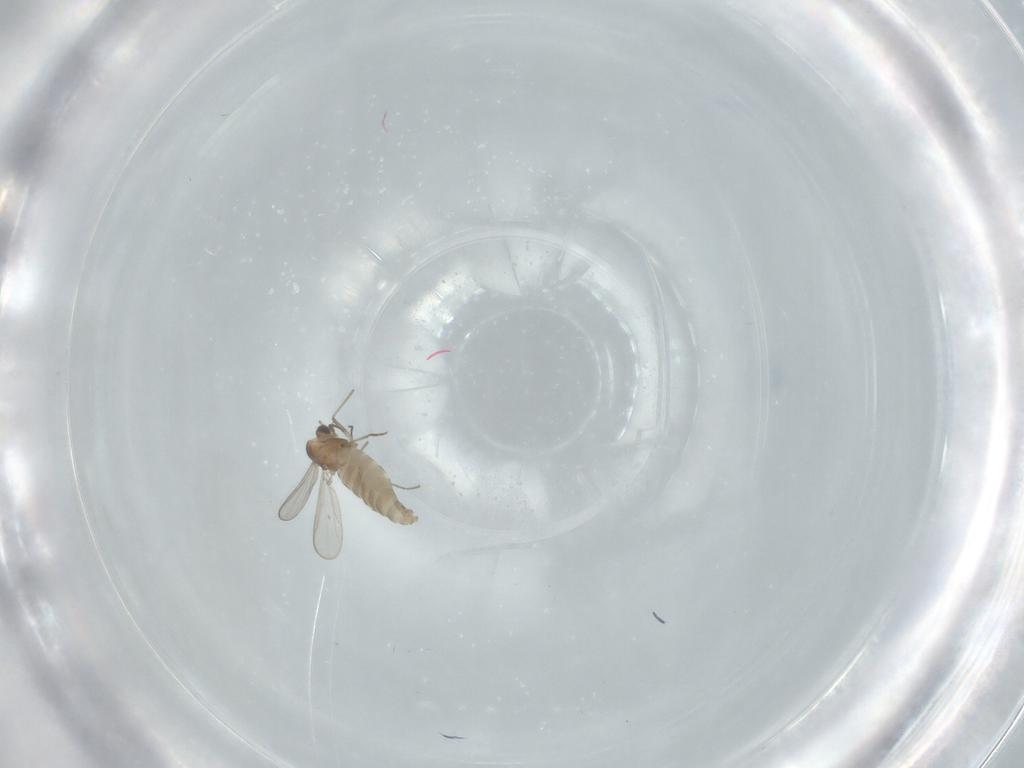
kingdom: Animalia
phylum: Arthropoda
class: Insecta
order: Diptera
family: Chironomidae
